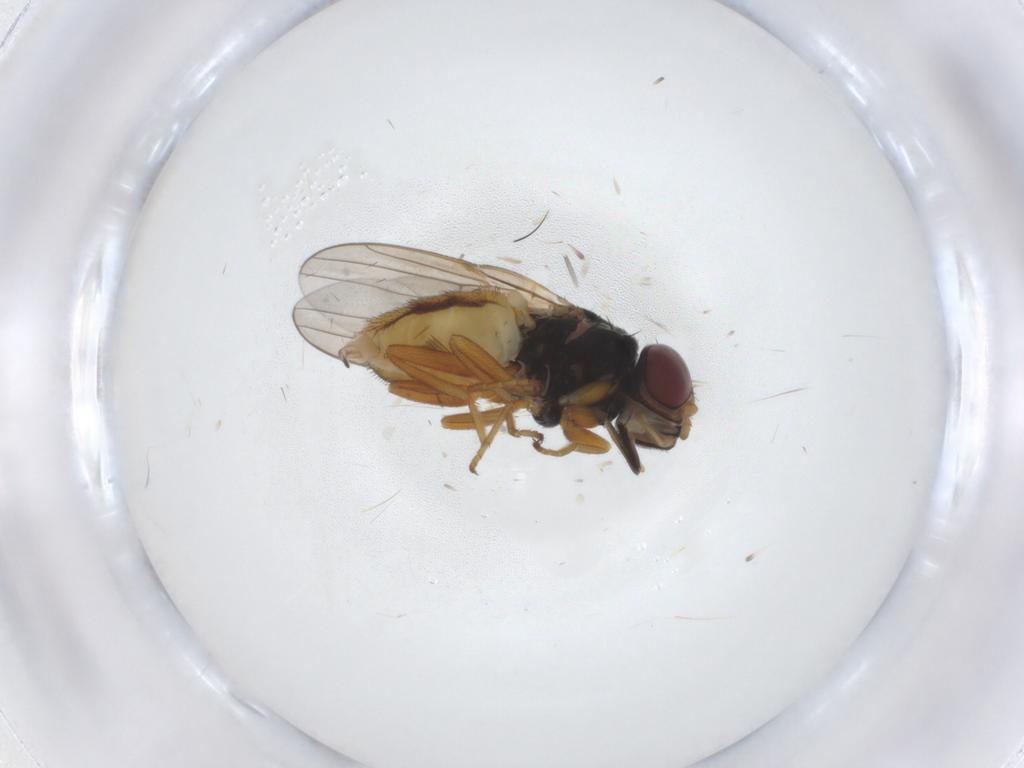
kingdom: Animalia
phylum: Arthropoda
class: Insecta
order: Diptera
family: Chloropidae
